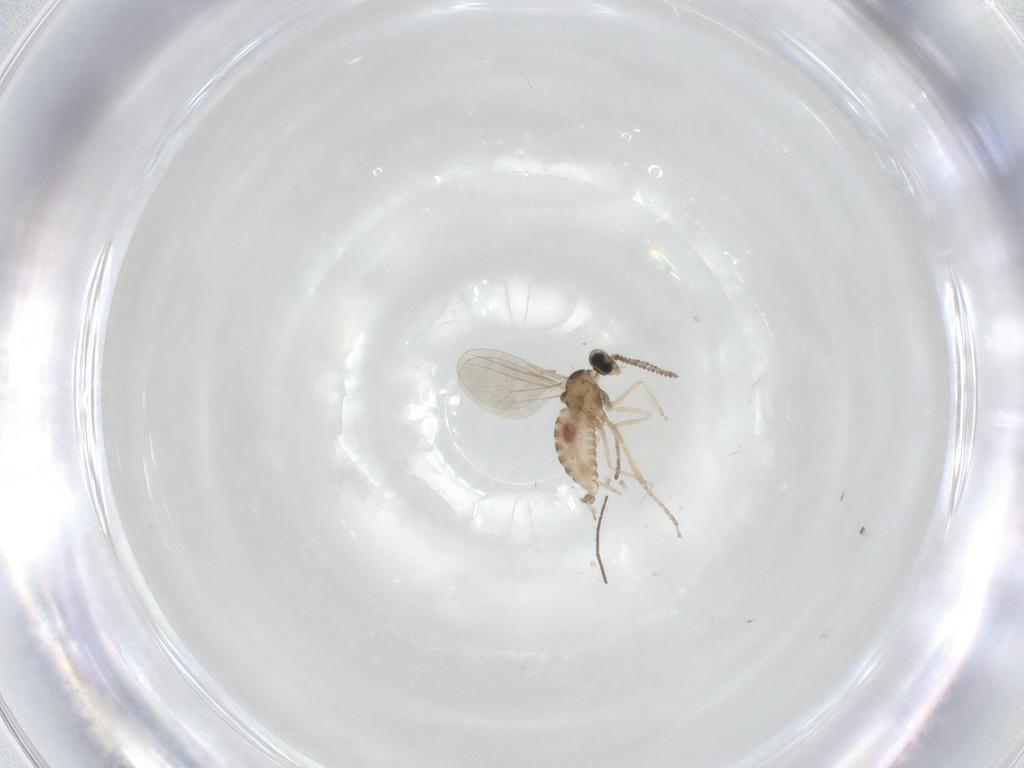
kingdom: Animalia
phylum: Arthropoda
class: Insecta
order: Diptera
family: Cecidomyiidae
